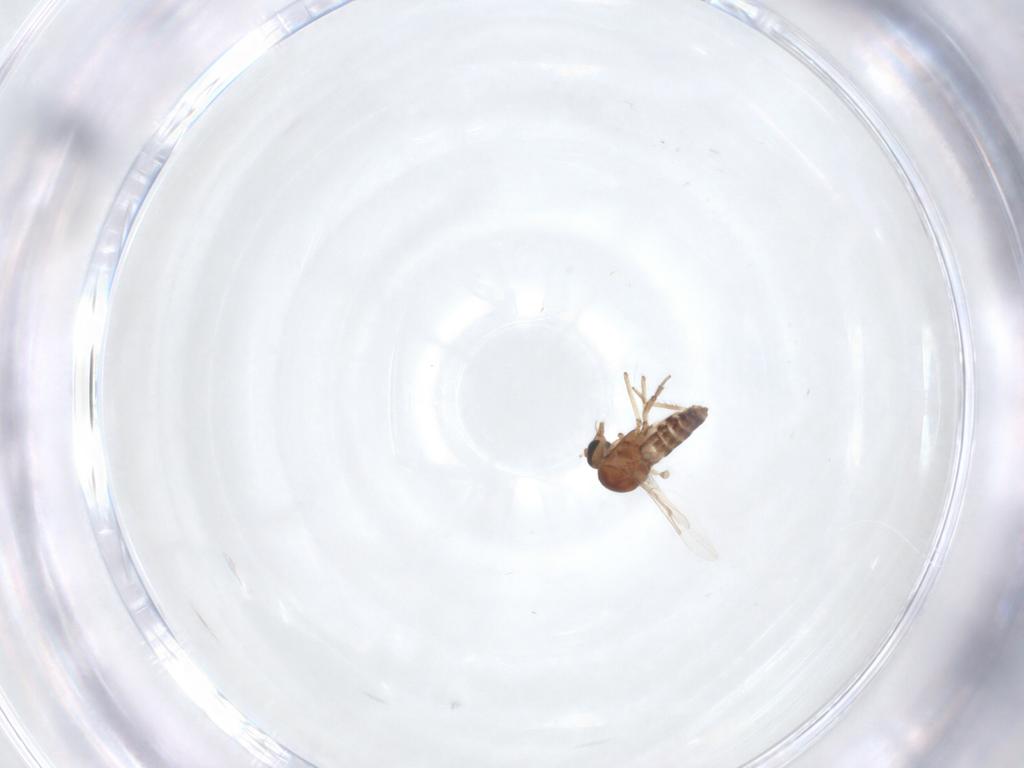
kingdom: Animalia
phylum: Arthropoda
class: Insecta
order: Diptera
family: Ceratopogonidae
